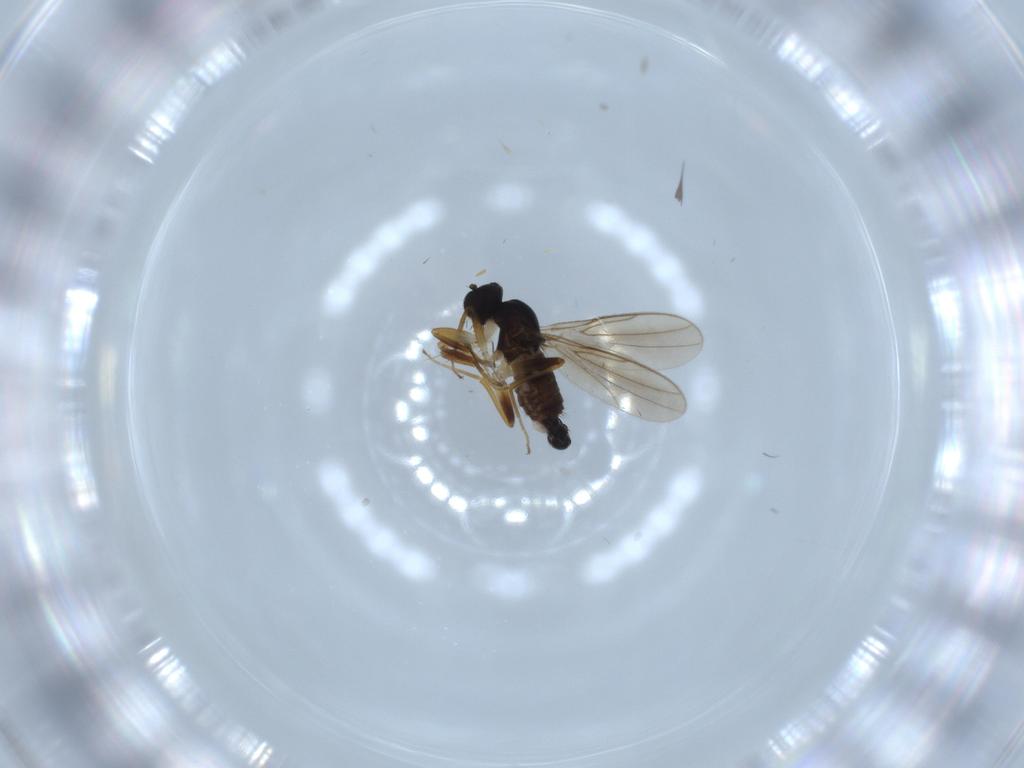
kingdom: Animalia
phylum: Arthropoda
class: Insecta
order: Diptera
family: Hybotidae
